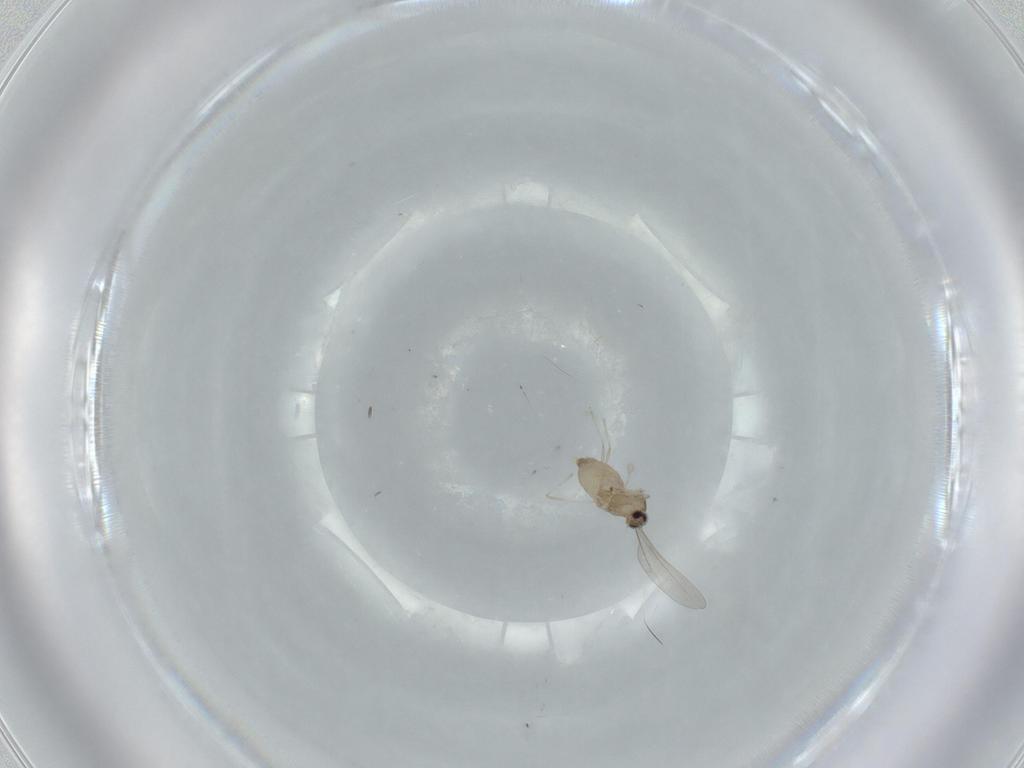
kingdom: Animalia
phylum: Arthropoda
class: Insecta
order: Diptera
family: Cecidomyiidae
